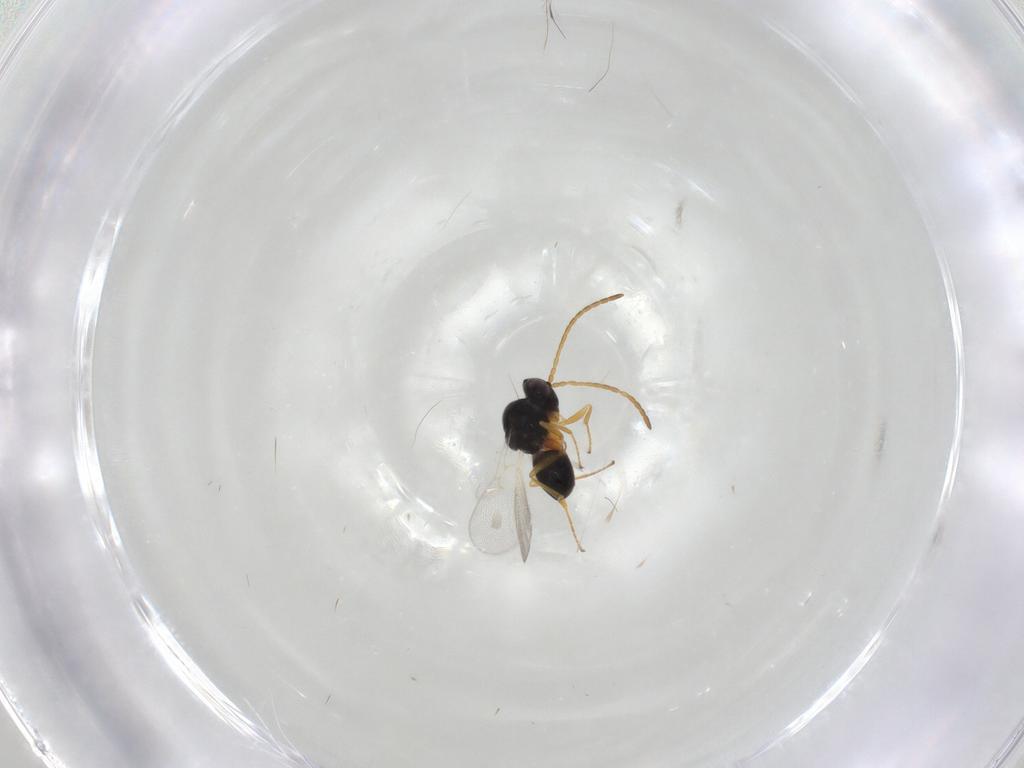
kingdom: Animalia
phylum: Arthropoda
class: Insecta
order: Hymenoptera
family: Figitidae
